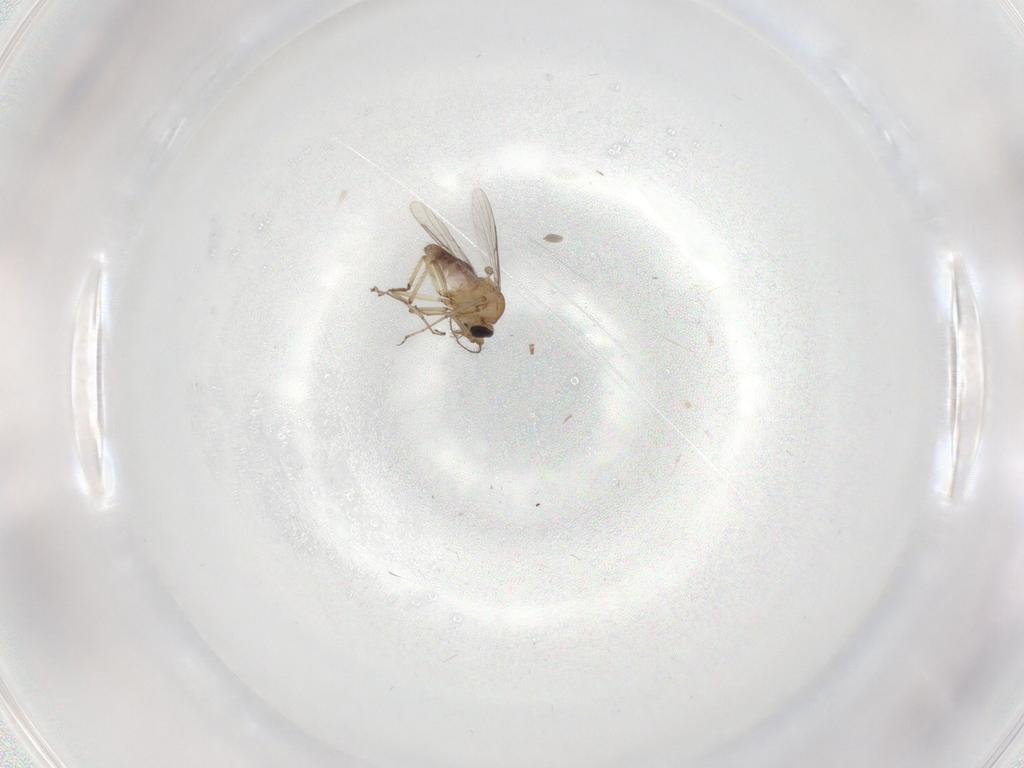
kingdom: Animalia
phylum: Arthropoda
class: Insecta
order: Diptera
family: Ceratopogonidae
